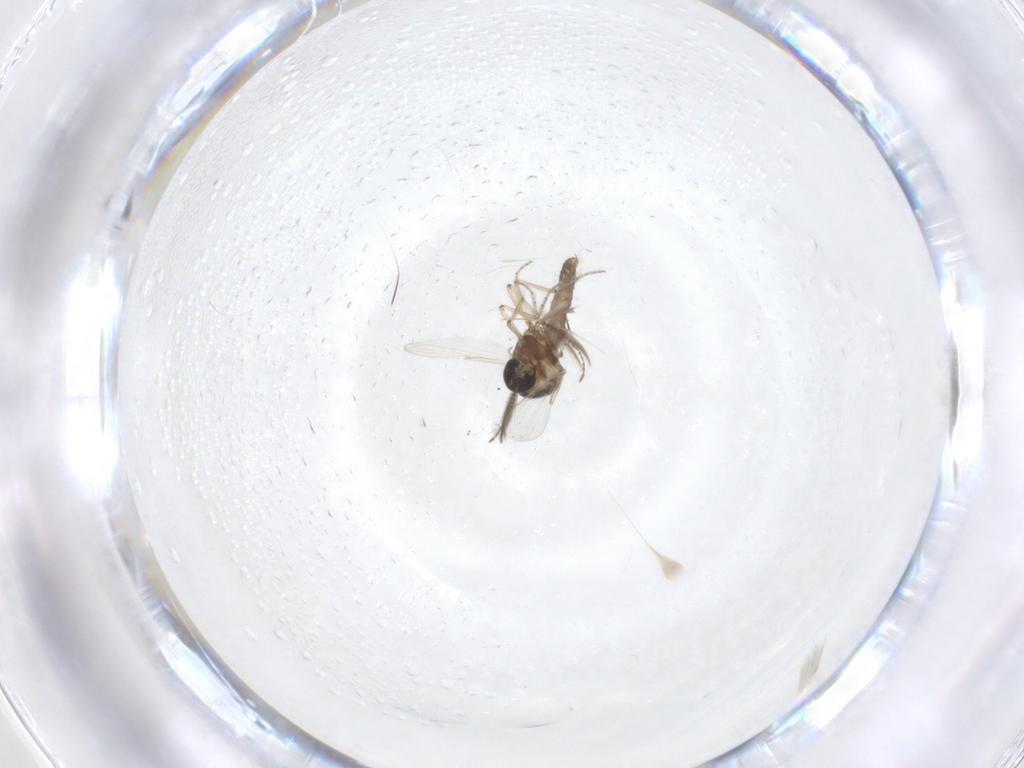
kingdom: Animalia
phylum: Arthropoda
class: Insecta
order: Diptera
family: Ceratopogonidae
